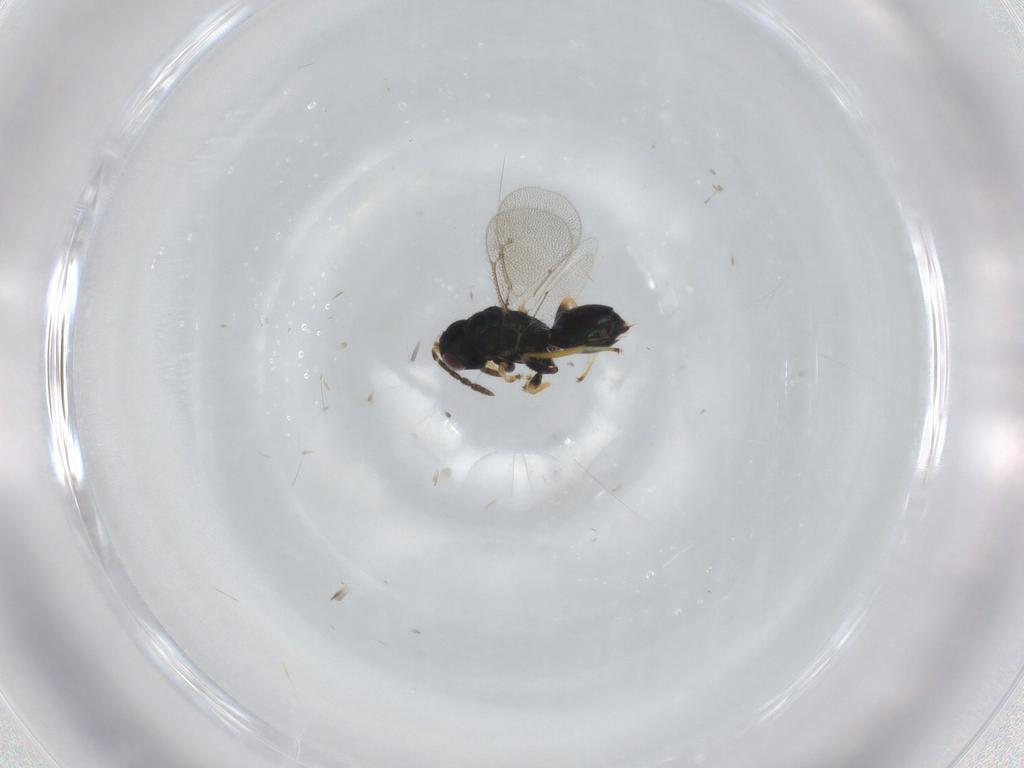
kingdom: Animalia
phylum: Arthropoda
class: Insecta
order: Hymenoptera
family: Eulophidae
